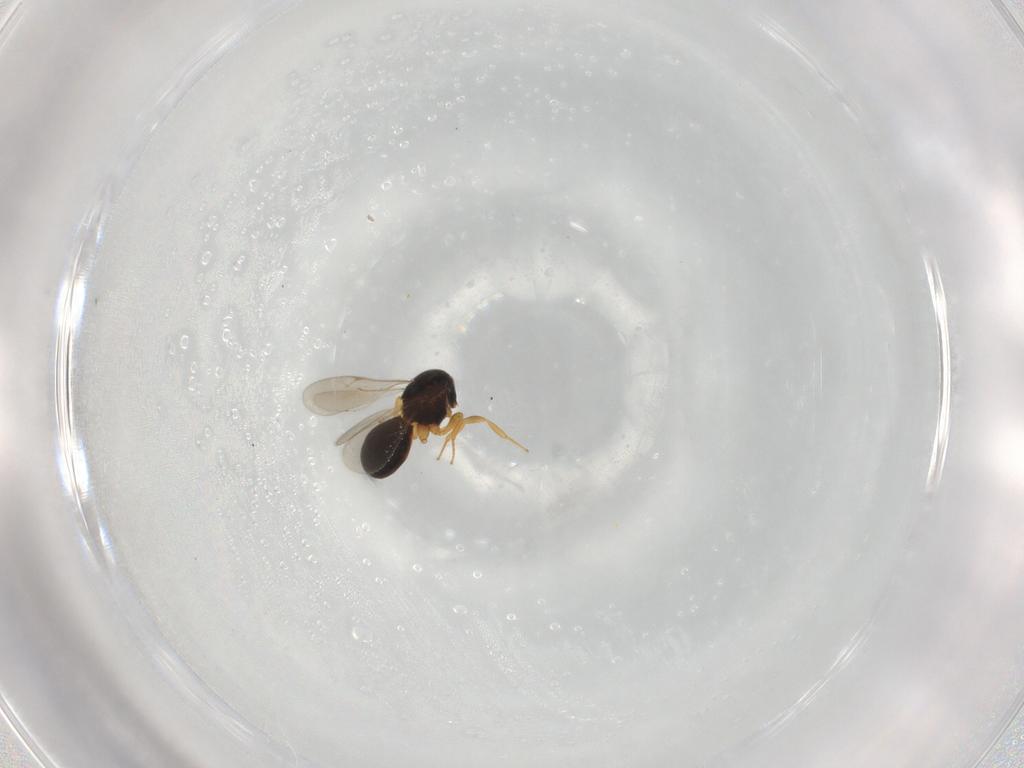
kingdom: Animalia
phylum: Arthropoda
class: Insecta
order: Hymenoptera
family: Scelionidae
